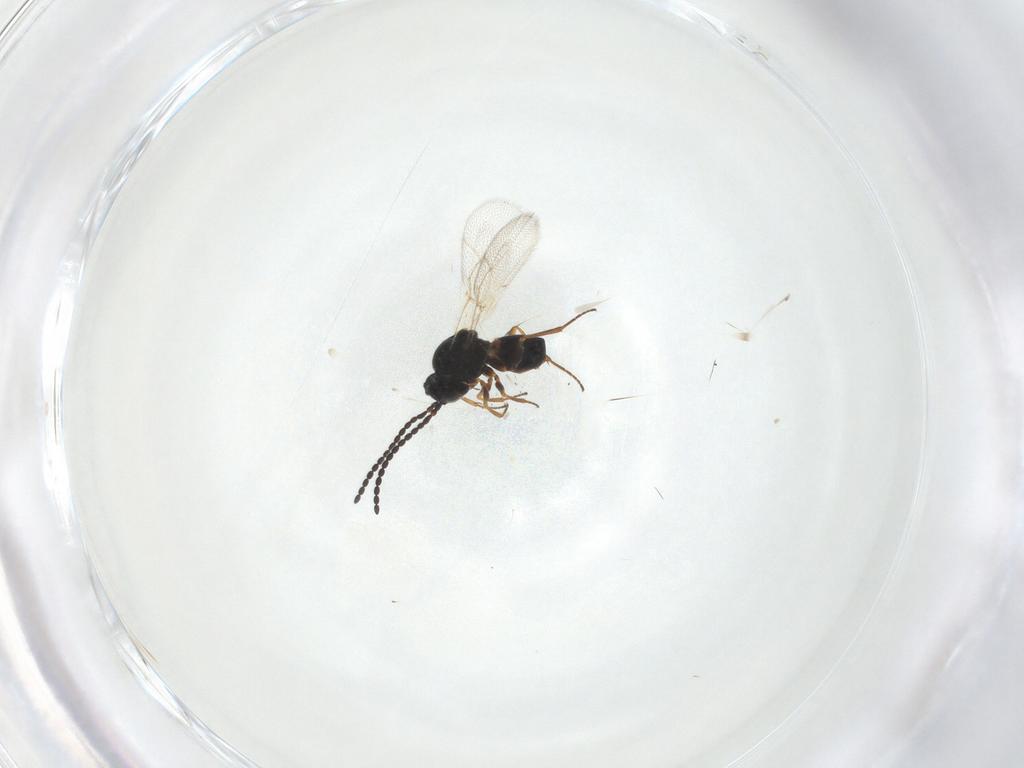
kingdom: Animalia
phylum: Arthropoda
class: Insecta
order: Hymenoptera
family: Figitidae
